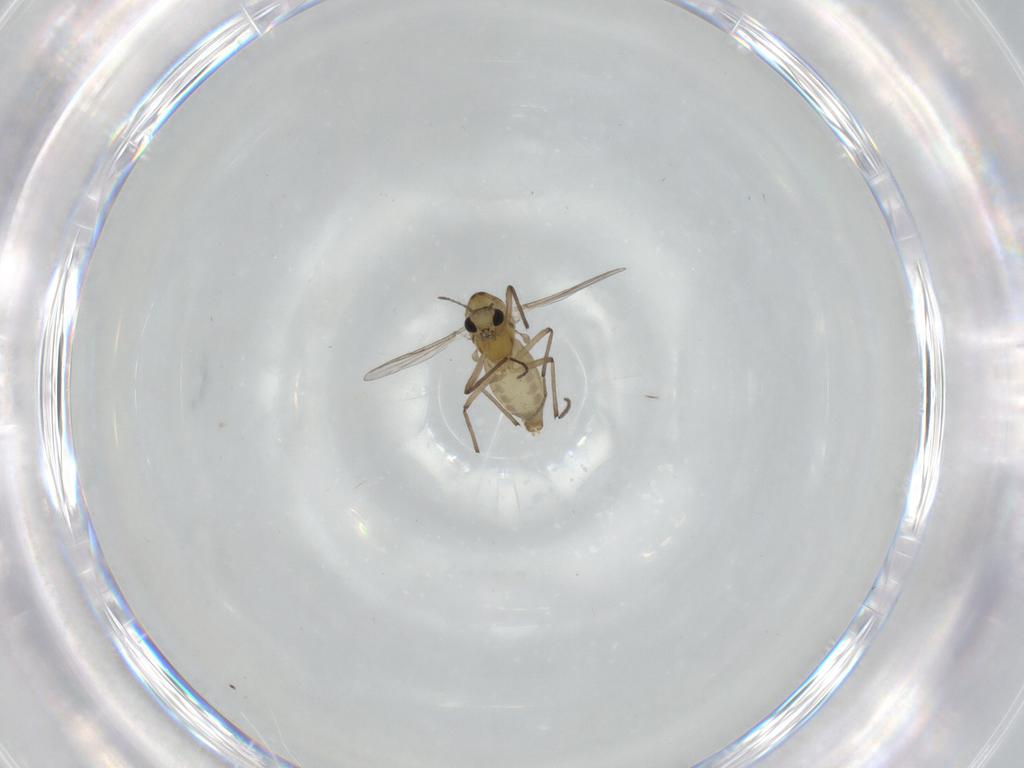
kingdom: Animalia
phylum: Arthropoda
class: Insecta
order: Diptera
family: Chironomidae
